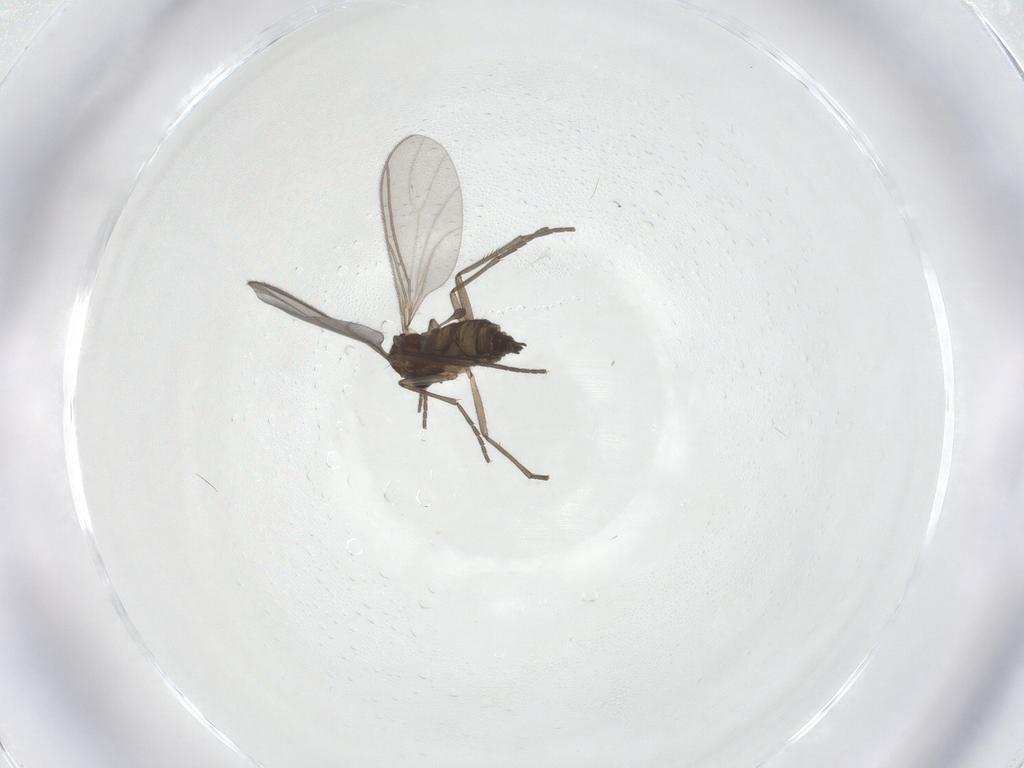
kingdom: Animalia
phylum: Arthropoda
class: Insecta
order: Diptera
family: Sciaridae
